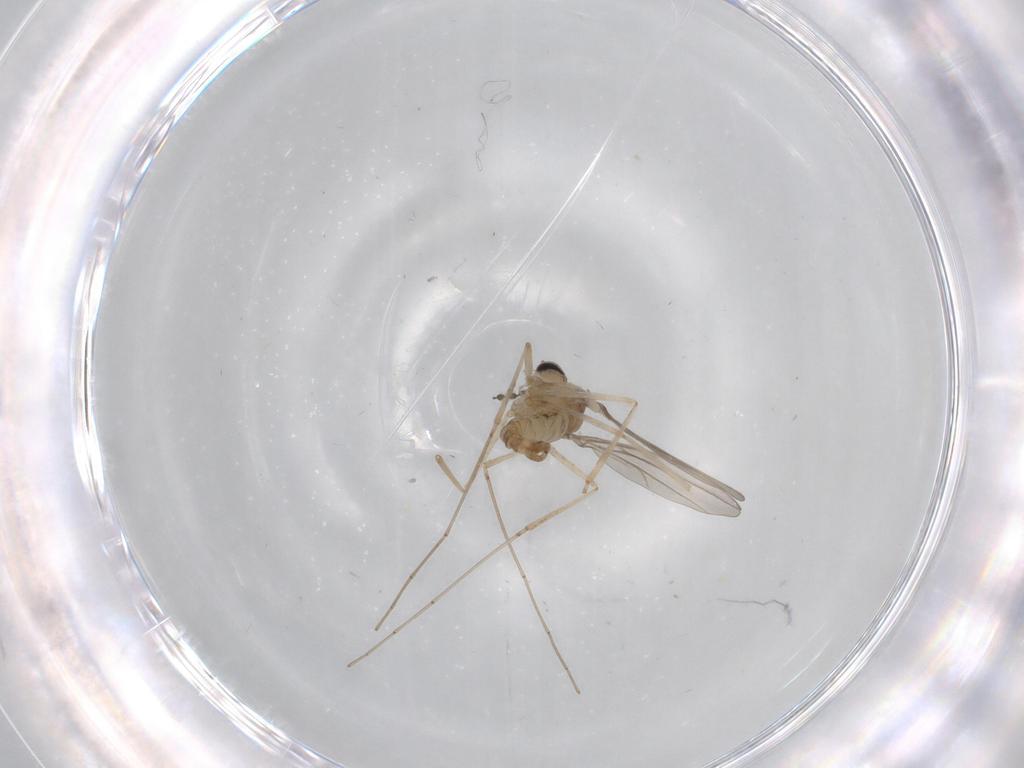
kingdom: Animalia
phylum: Arthropoda
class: Insecta
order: Diptera
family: Cecidomyiidae
